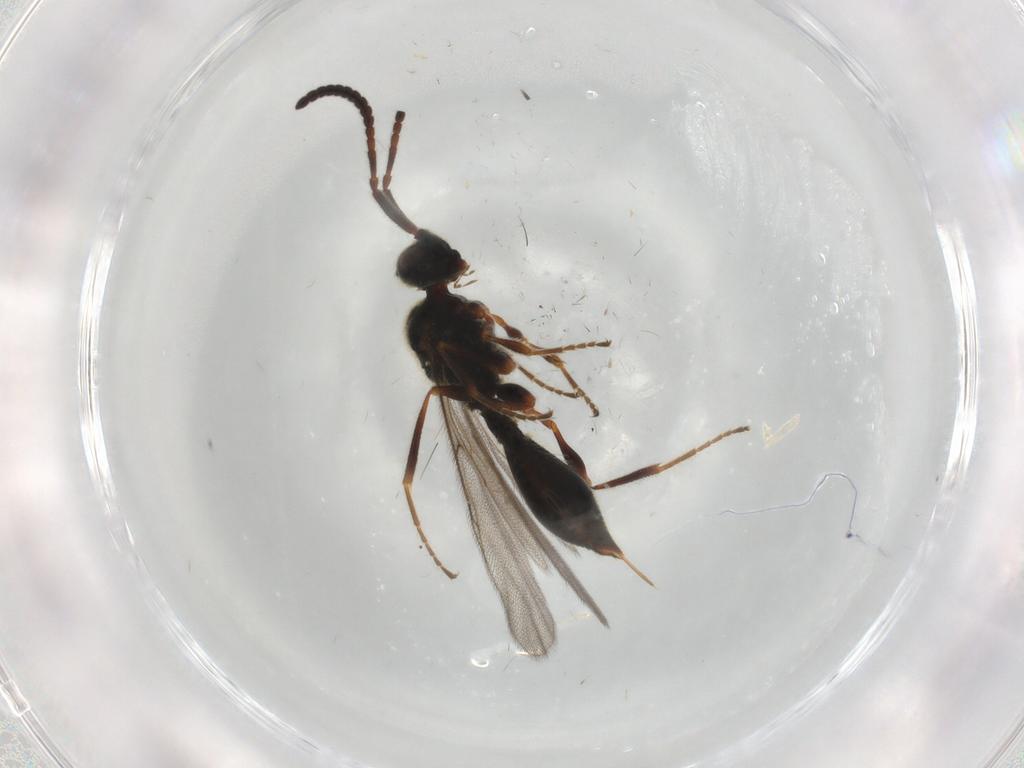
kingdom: Animalia
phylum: Arthropoda
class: Insecta
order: Hymenoptera
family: Diapriidae
